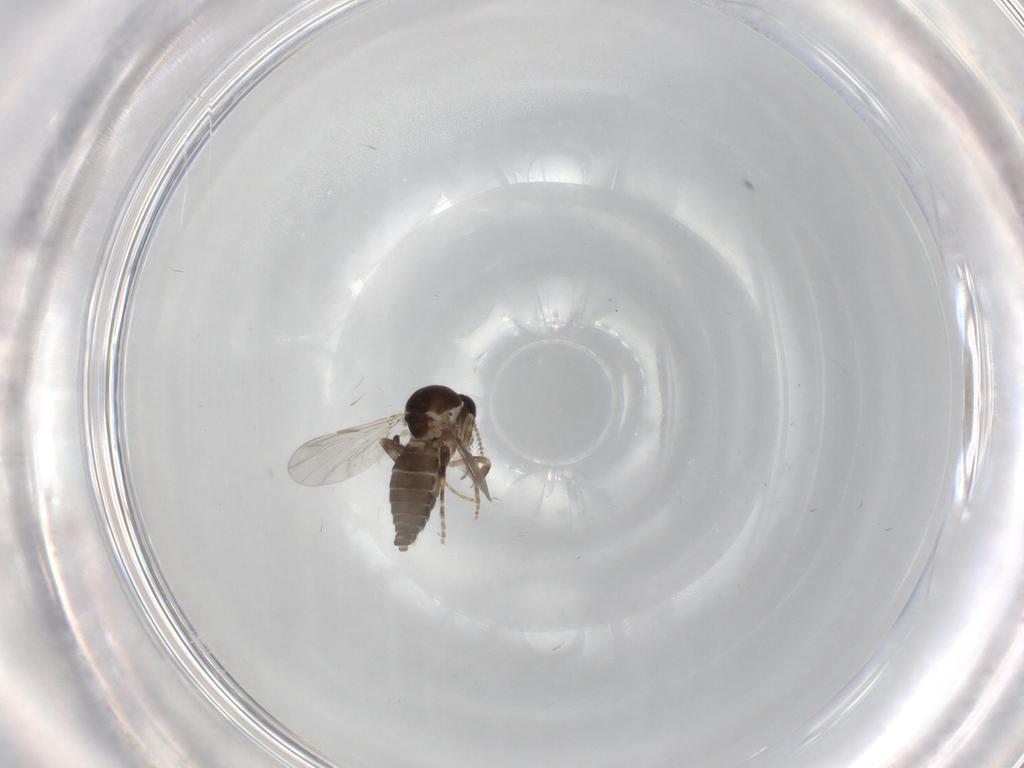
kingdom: Animalia
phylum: Arthropoda
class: Insecta
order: Diptera
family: Ceratopogonidae
